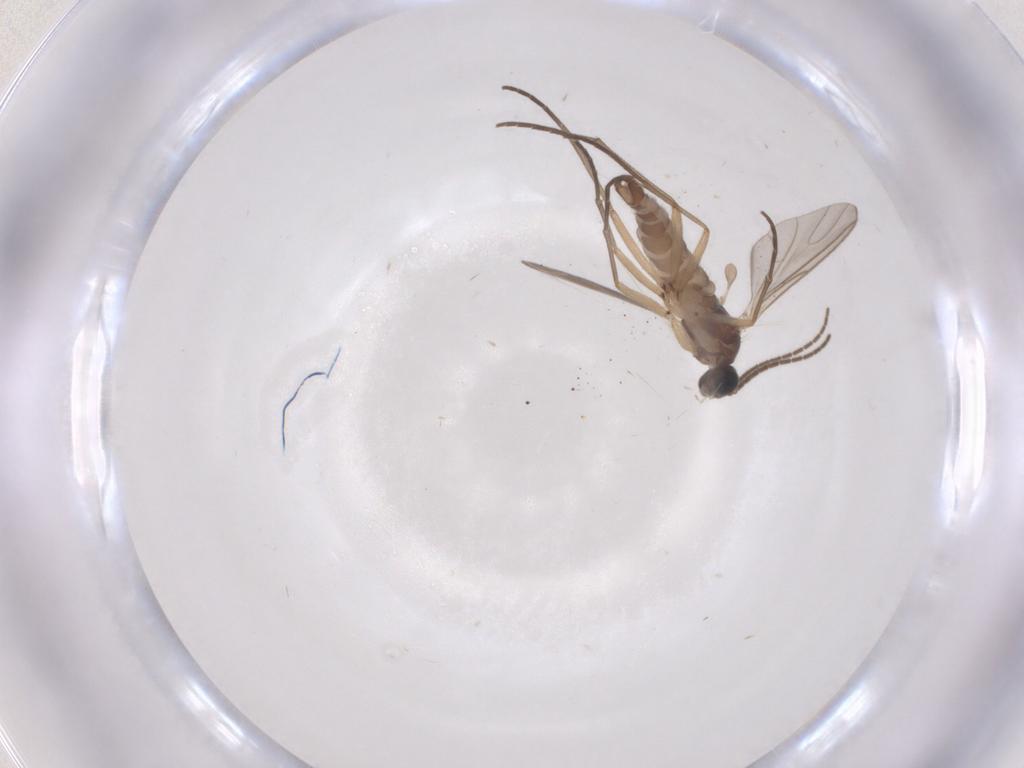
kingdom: Animalia
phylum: Arthropoda
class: Insecta
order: Diptera
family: Sciaridae
